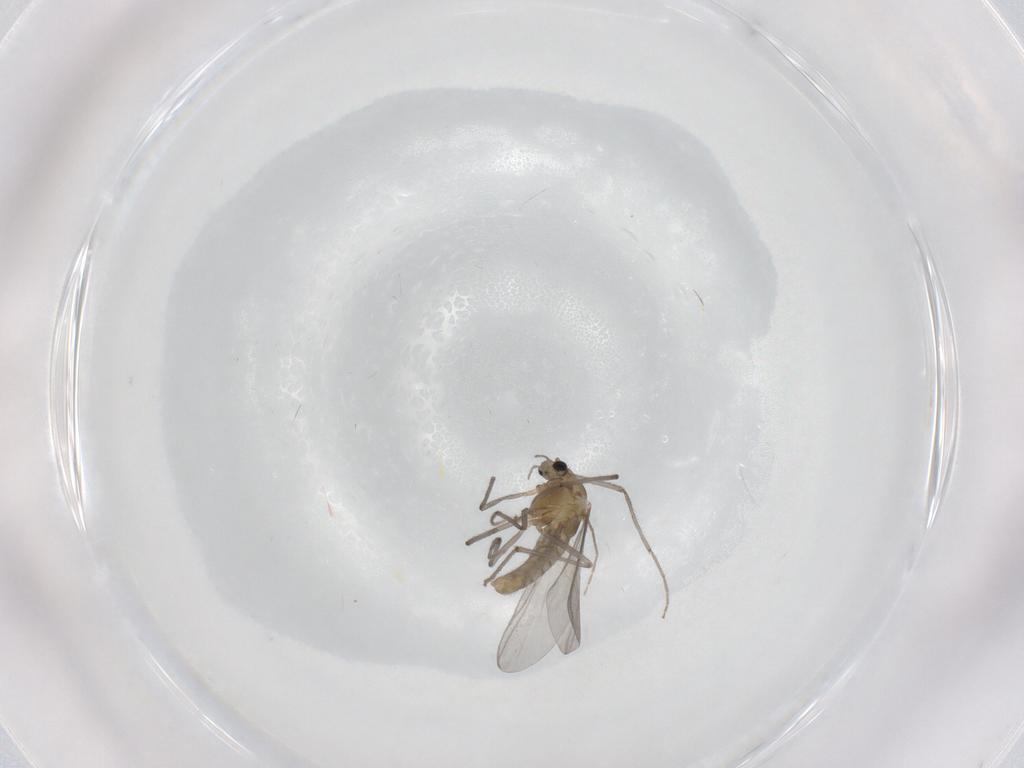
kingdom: Animalia
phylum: Arthropoda
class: Insecta
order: Diptera
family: Chironomidae
